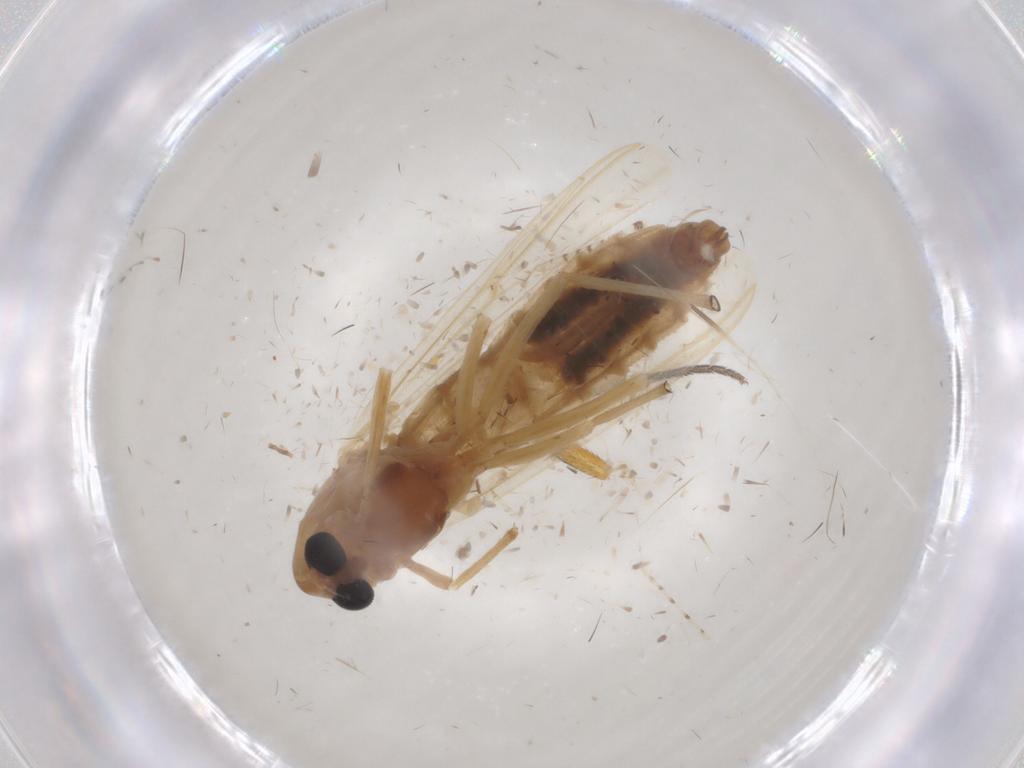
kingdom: Animalia
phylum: Arthropoda
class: Insecta
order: Diptera
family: Ceratopogonidae
